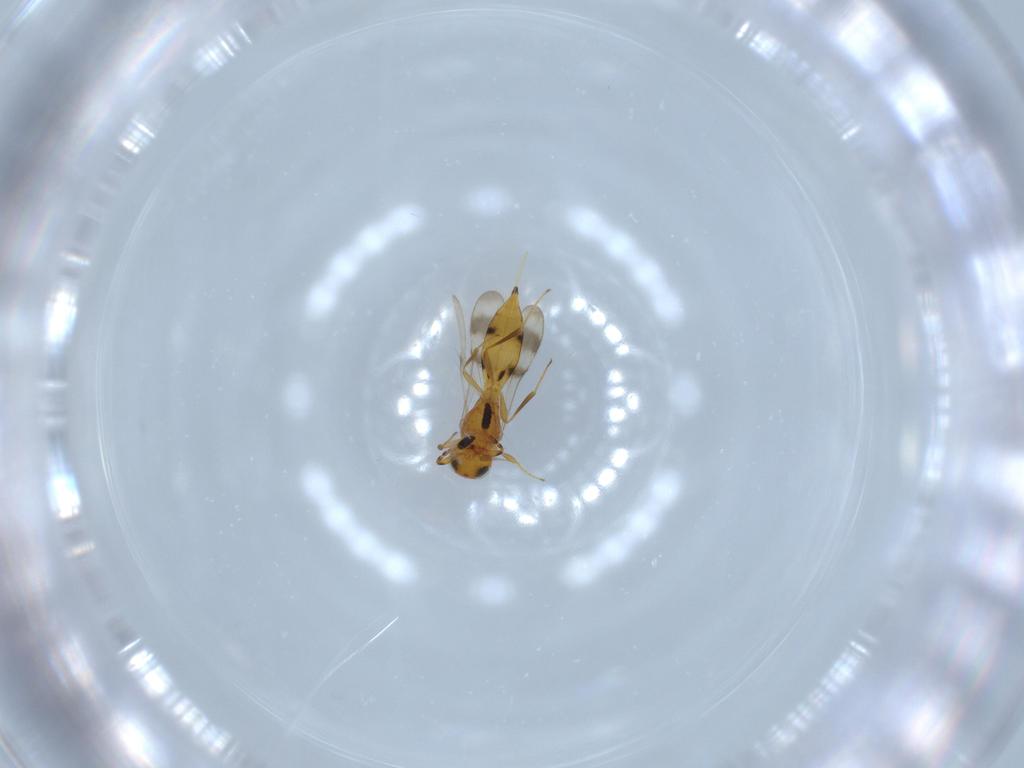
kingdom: Animalia
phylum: Arthropoda
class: Insecta
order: Hymenoptera
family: Scelionidae
